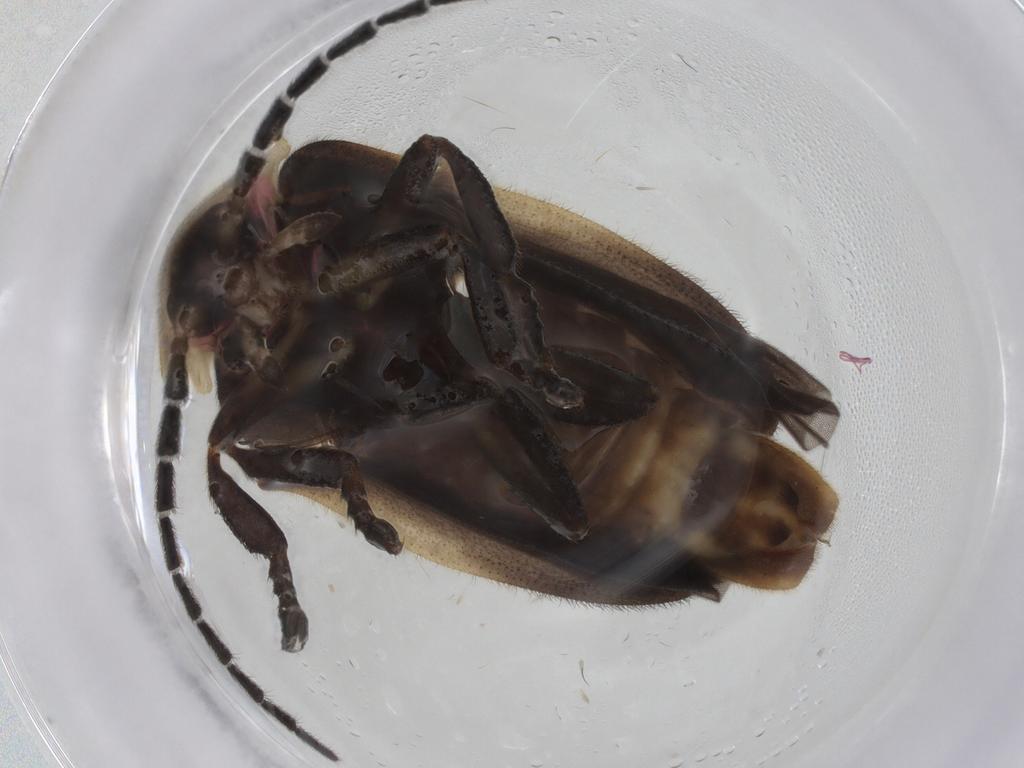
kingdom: Animalia
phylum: Arthropoda
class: Insecta
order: Coleoptera
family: Lampyridae
